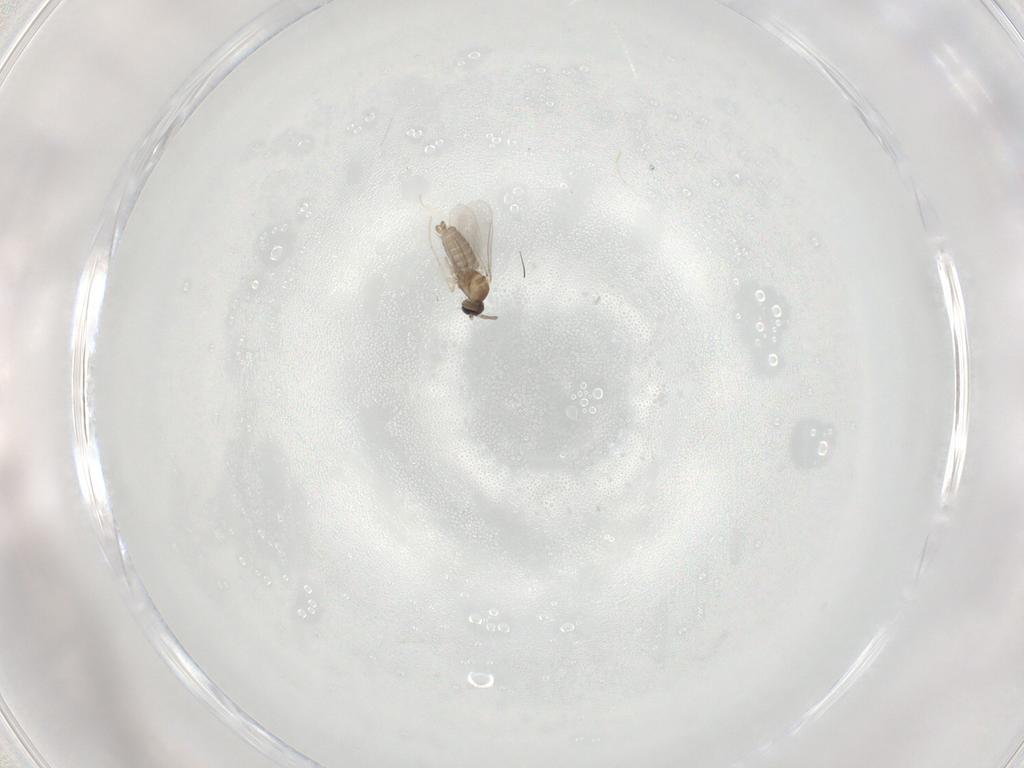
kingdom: Animalia
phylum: Arthropoda
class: Insecta
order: Diptera
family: Cecidomyiidae
